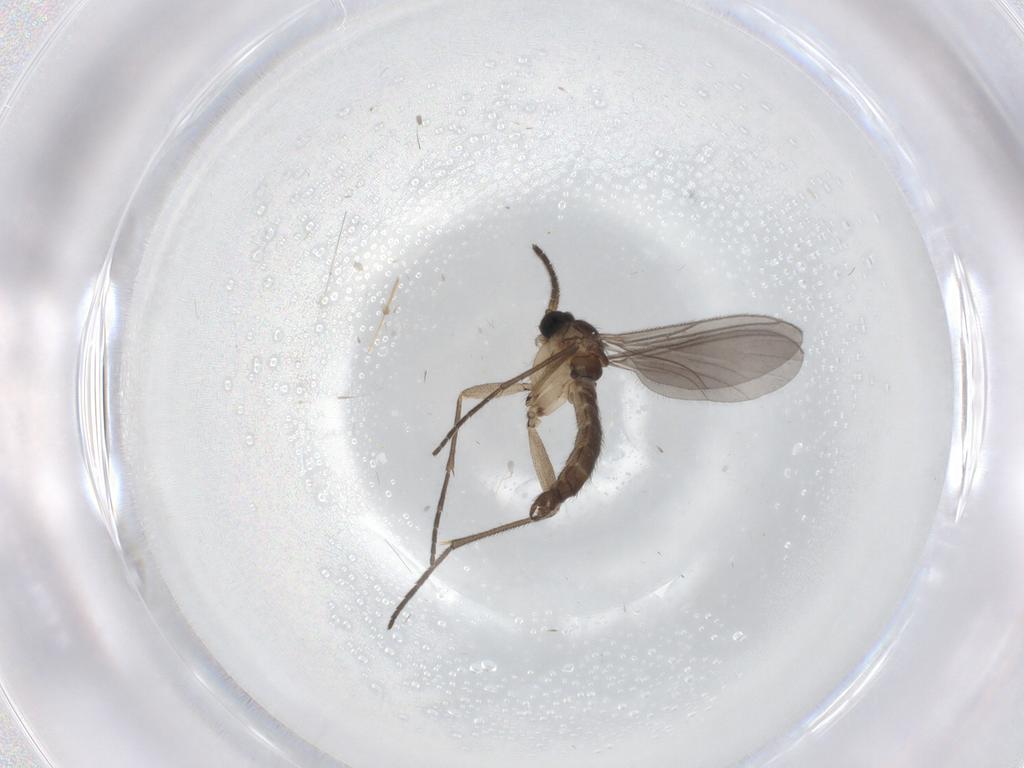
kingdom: Animalia
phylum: Arthropoda
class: Insecta
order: Diptera
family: Sciaridae
